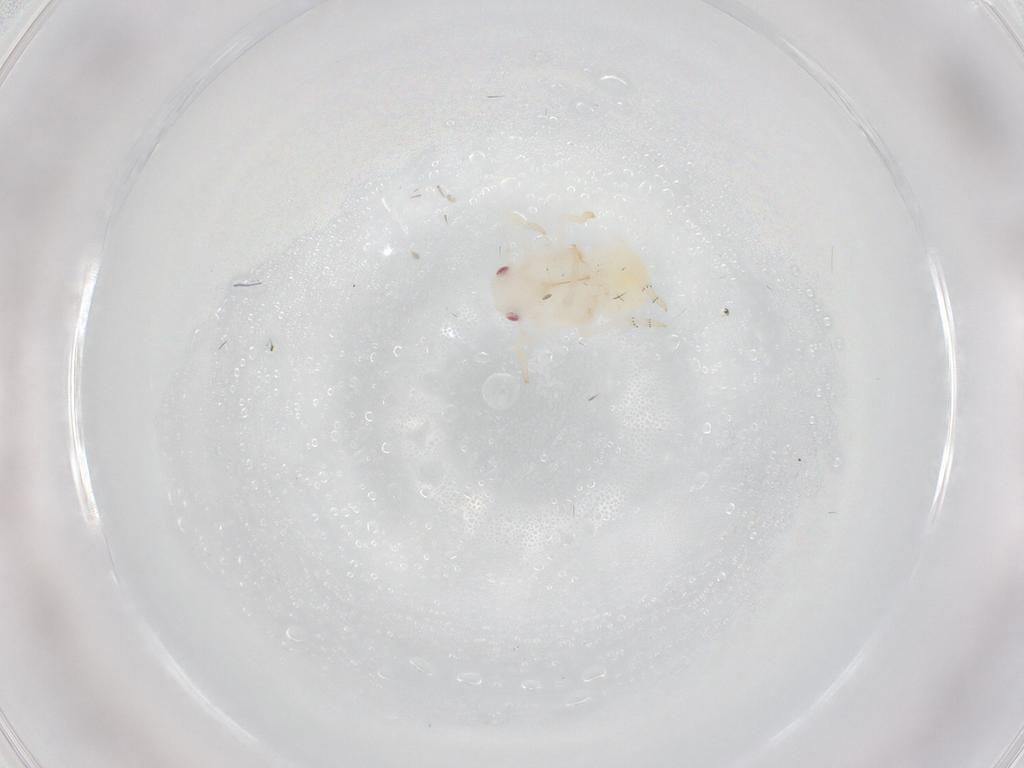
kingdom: Animalia
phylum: Arthropoda
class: Insecta
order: Hemiptera
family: Flatidae
